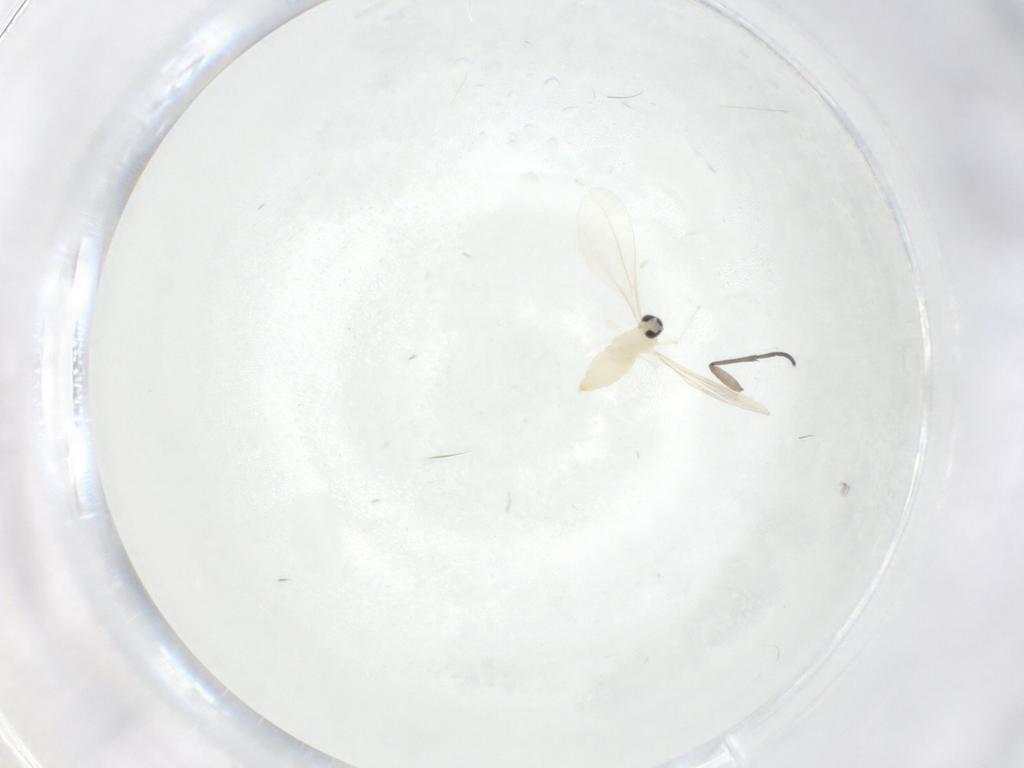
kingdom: Animalia
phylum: Arthropoda
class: Insecta
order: Diptera
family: Sciaridae
